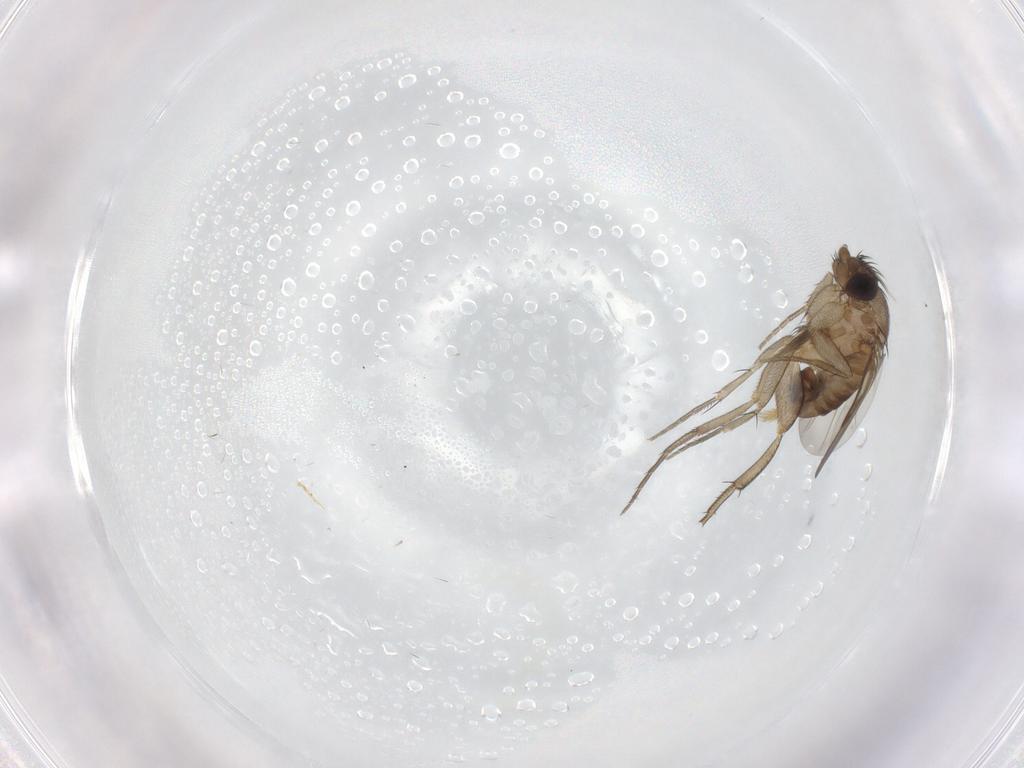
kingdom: Animalia
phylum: Arthropoda
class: Insecta
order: Diptera
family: Phoridae
